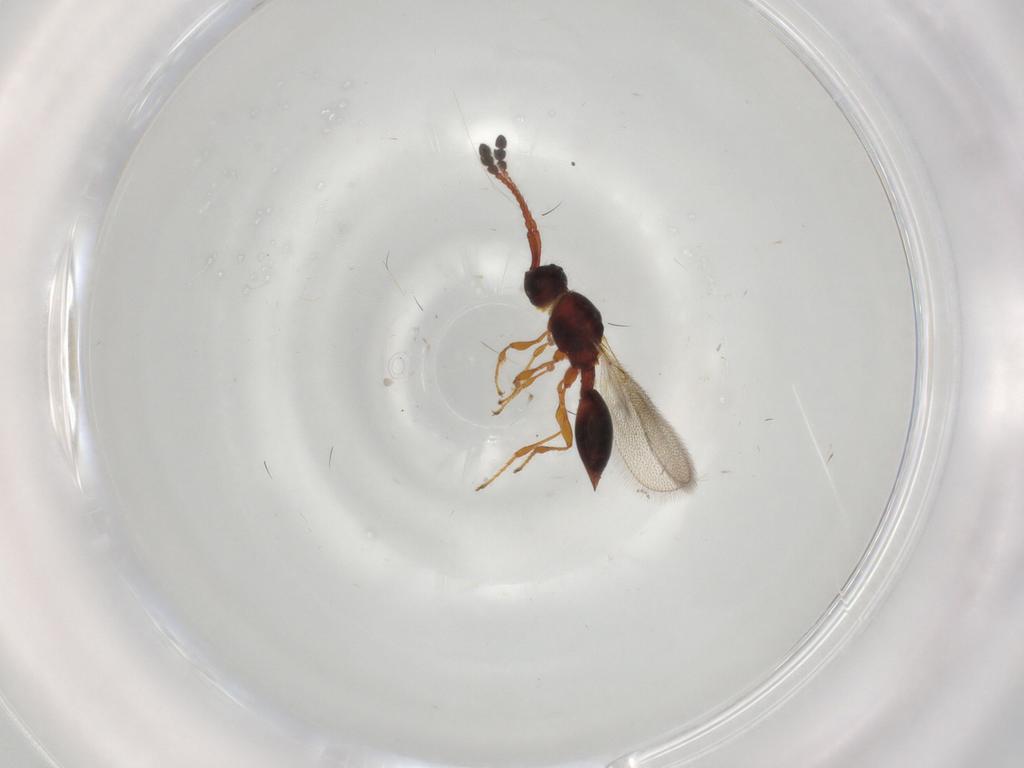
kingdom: Animalia
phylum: Arthropoda
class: Insecta
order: Hymenoptera
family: Diapriidae
